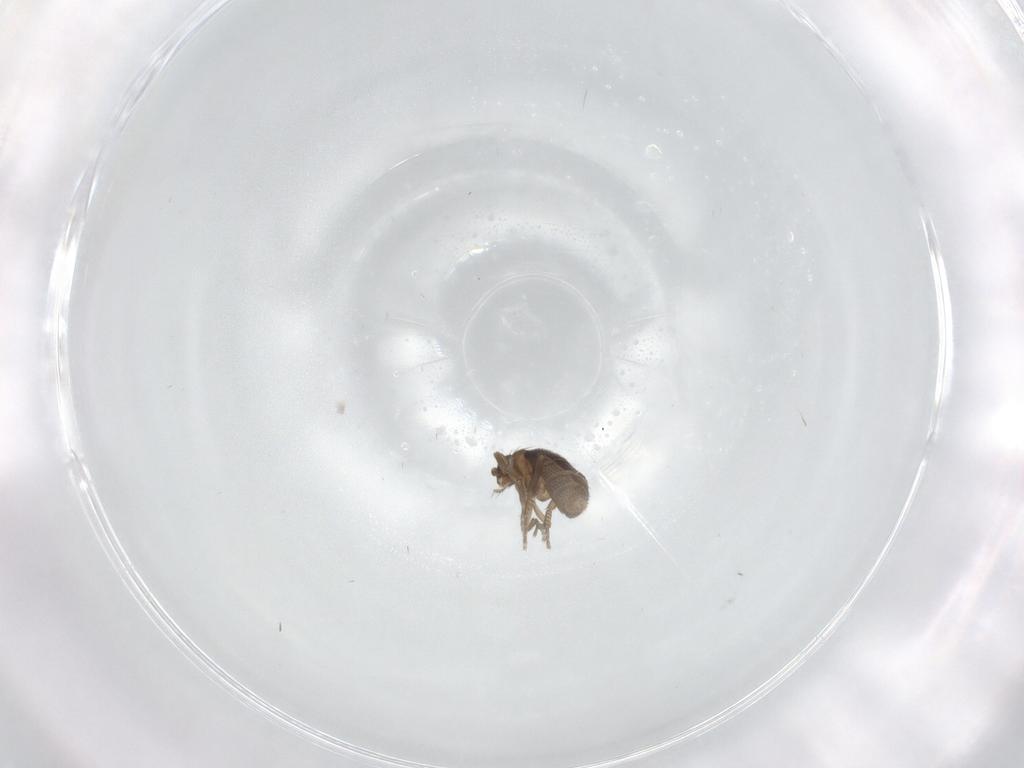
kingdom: Animalia
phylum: Arthropoda
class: Insecta
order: Diptera
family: Phoridae
